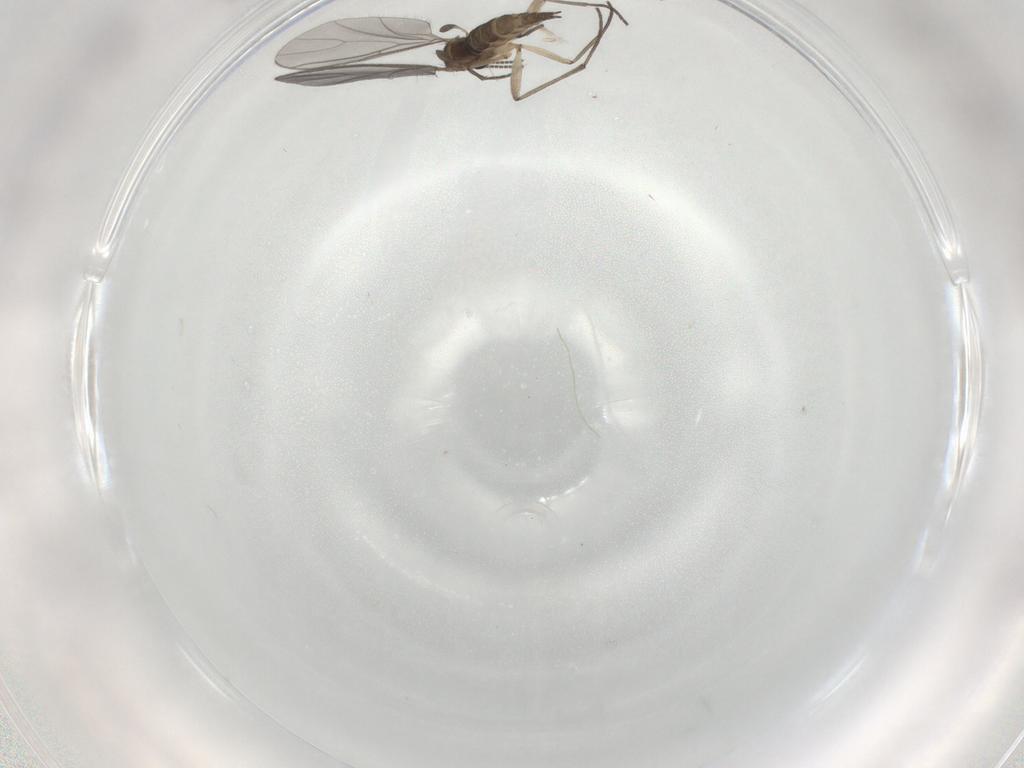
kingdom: Animalia
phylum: Arthropoda
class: Insecta
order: Diptera
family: Sciaridae
